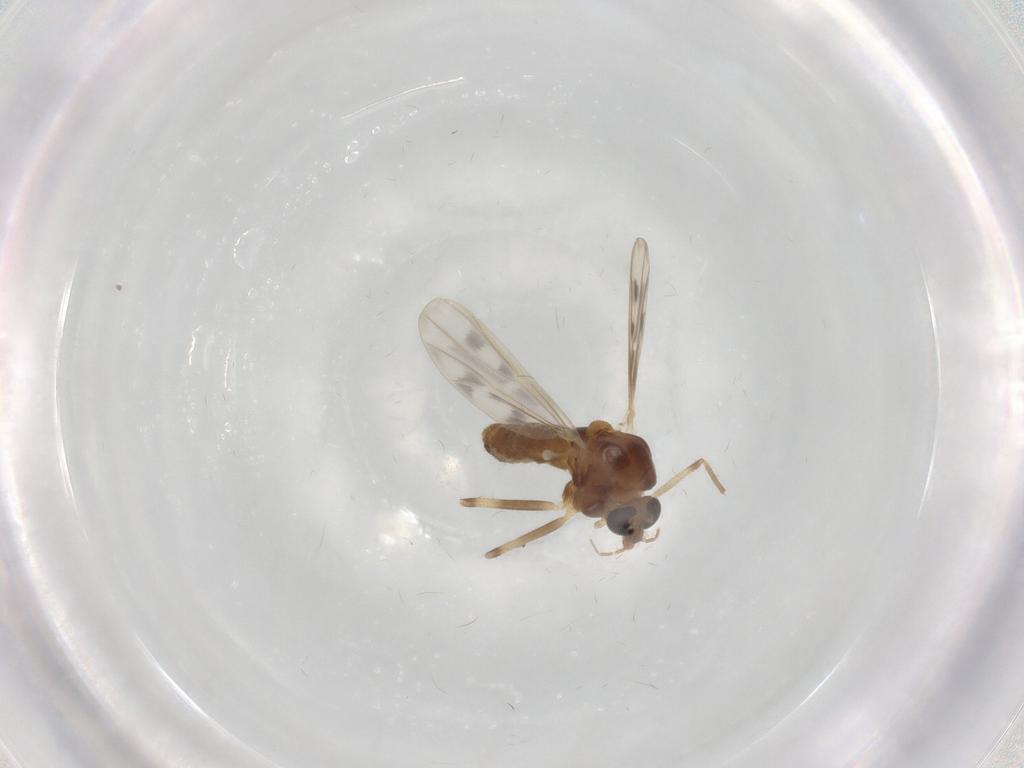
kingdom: Animalia
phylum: Arthropoda
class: Insecta
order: Diptera
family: Chironomidae
